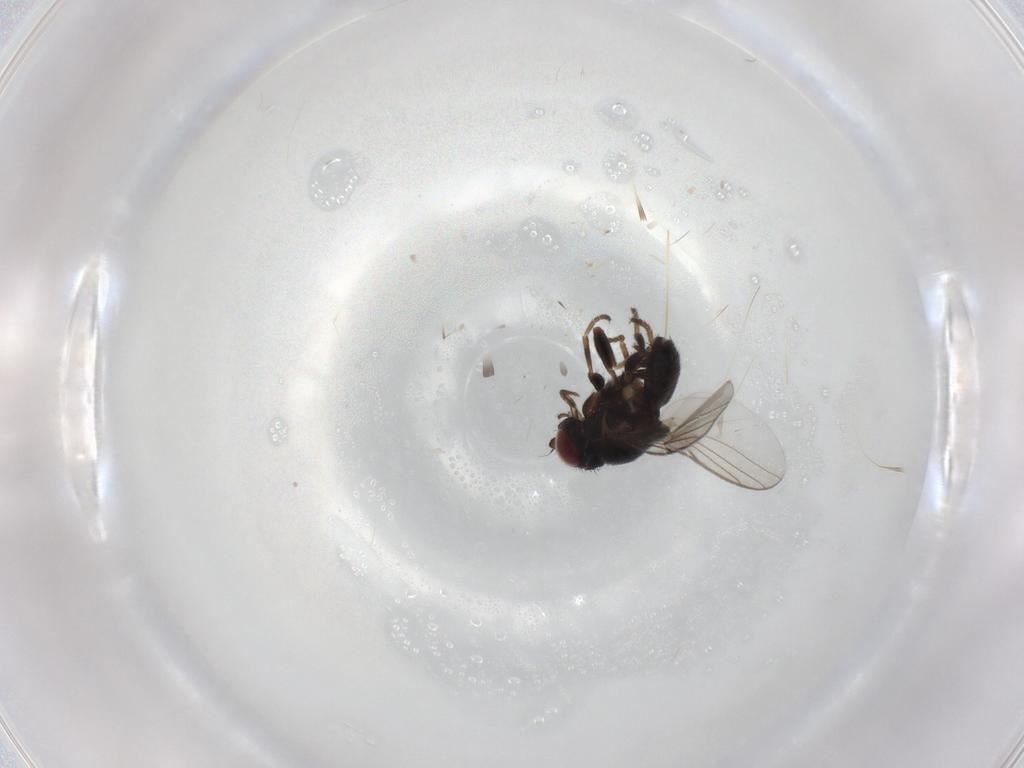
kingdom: Animalia
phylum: Arthropoda
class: Insecta
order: Diptera
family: Chloropidae
